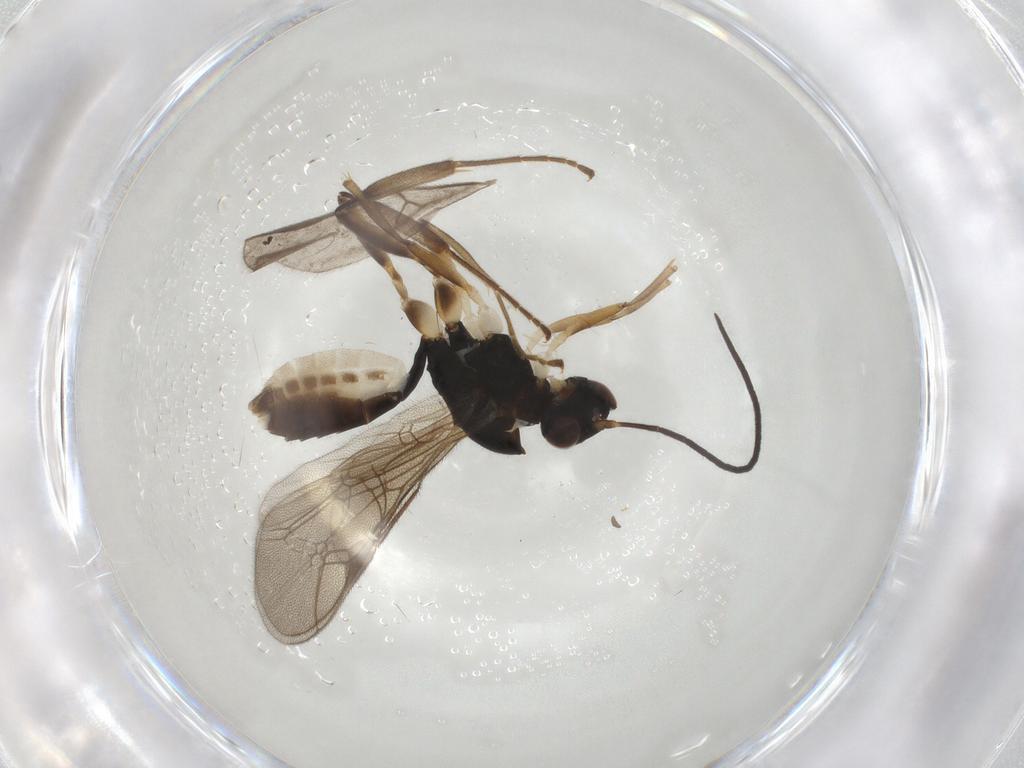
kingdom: Animalia
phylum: Arthropoda
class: Insecta
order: Hymenoptera
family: Ichneumonidae
